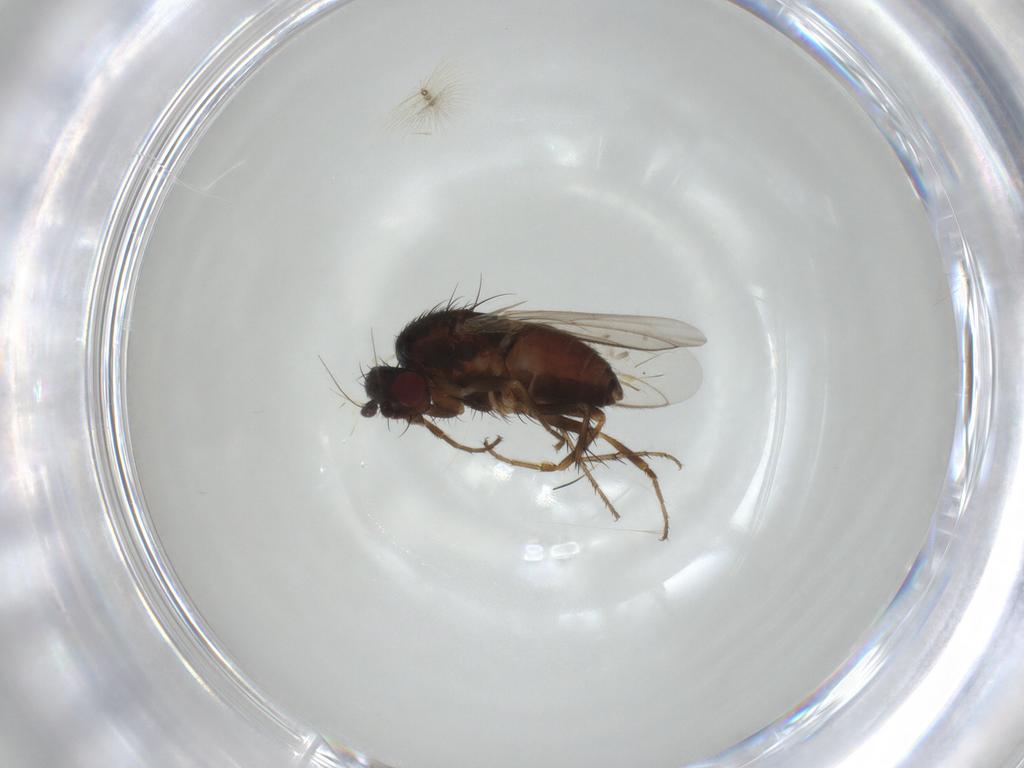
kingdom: Animalia
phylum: Arthropoda
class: Insecta
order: Diptera
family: Sphaeroceridae
